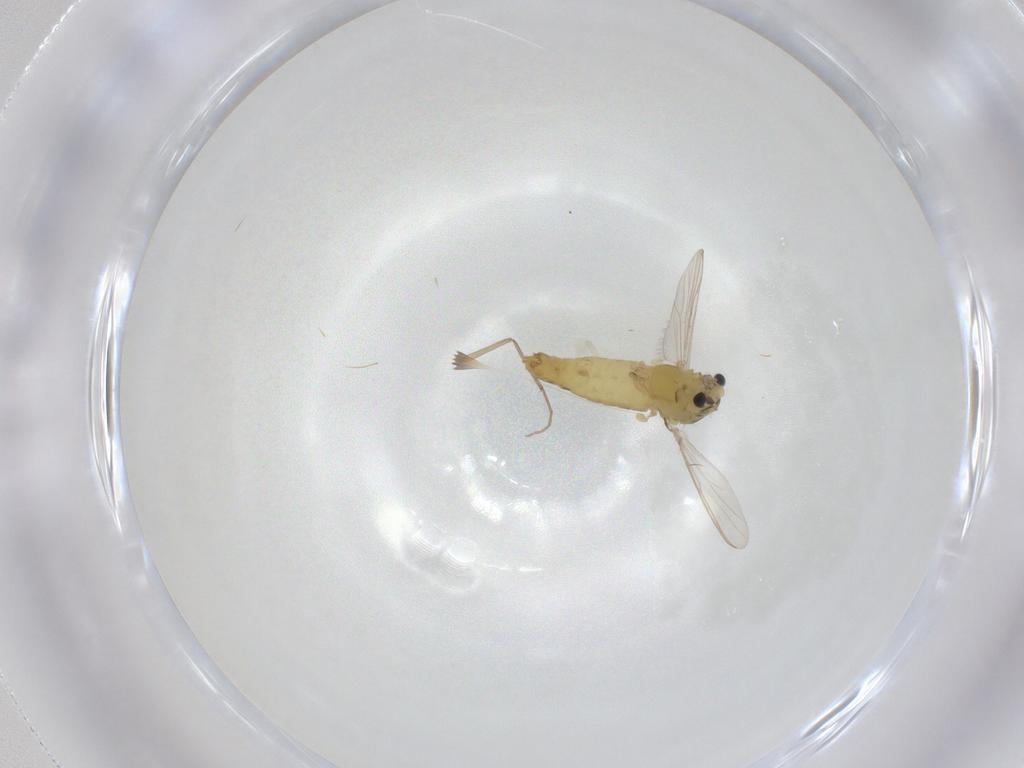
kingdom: Animalia
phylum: Arthropoda
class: Insecta
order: Diptera
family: Chironomidae
